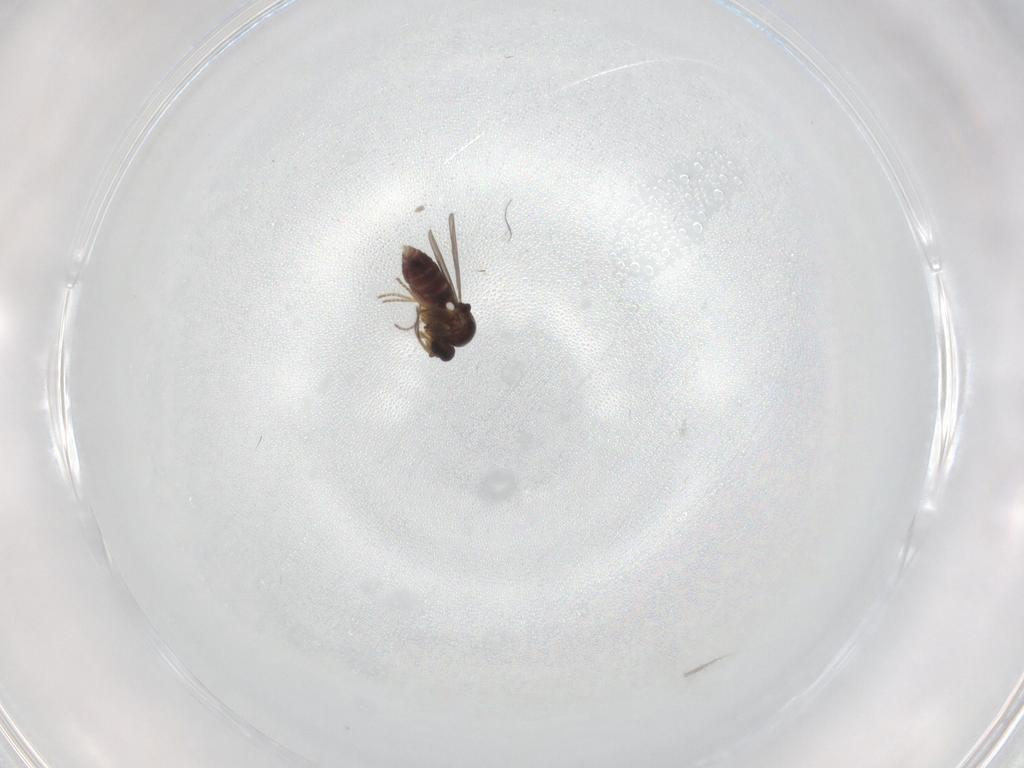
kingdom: Animalia
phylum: Arthropoda
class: Insecta
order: Diptera
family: Ceratopogonidae
